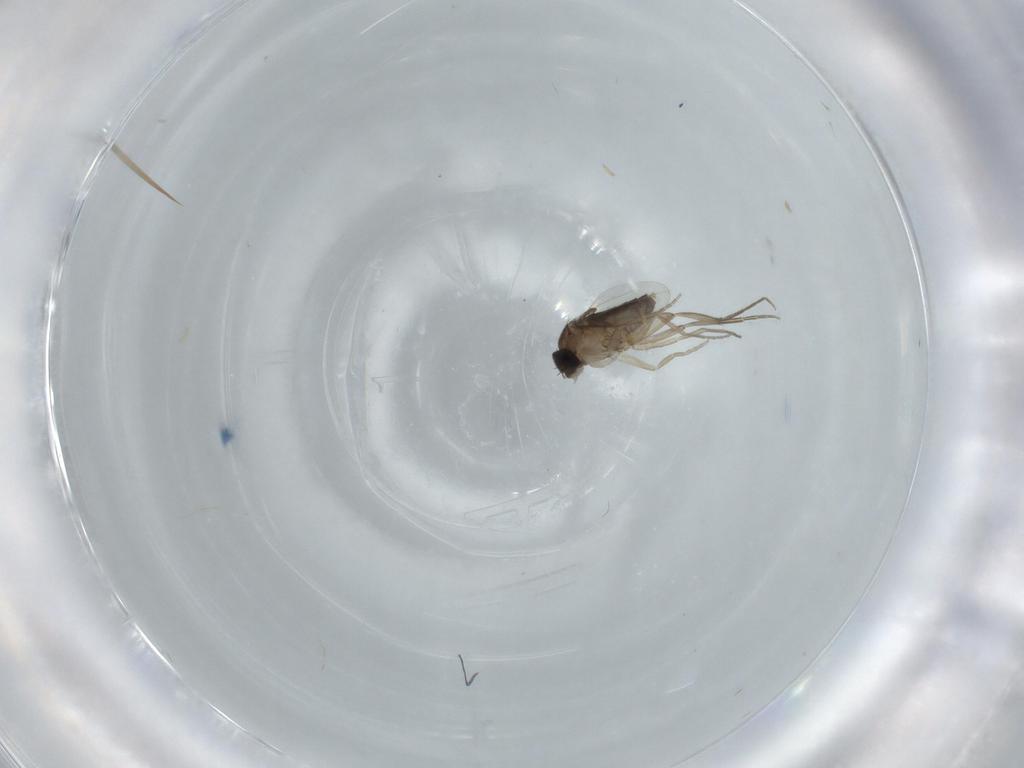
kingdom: Animalia
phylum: Arthropoda
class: Insecta
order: Diptera
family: Phoridae
